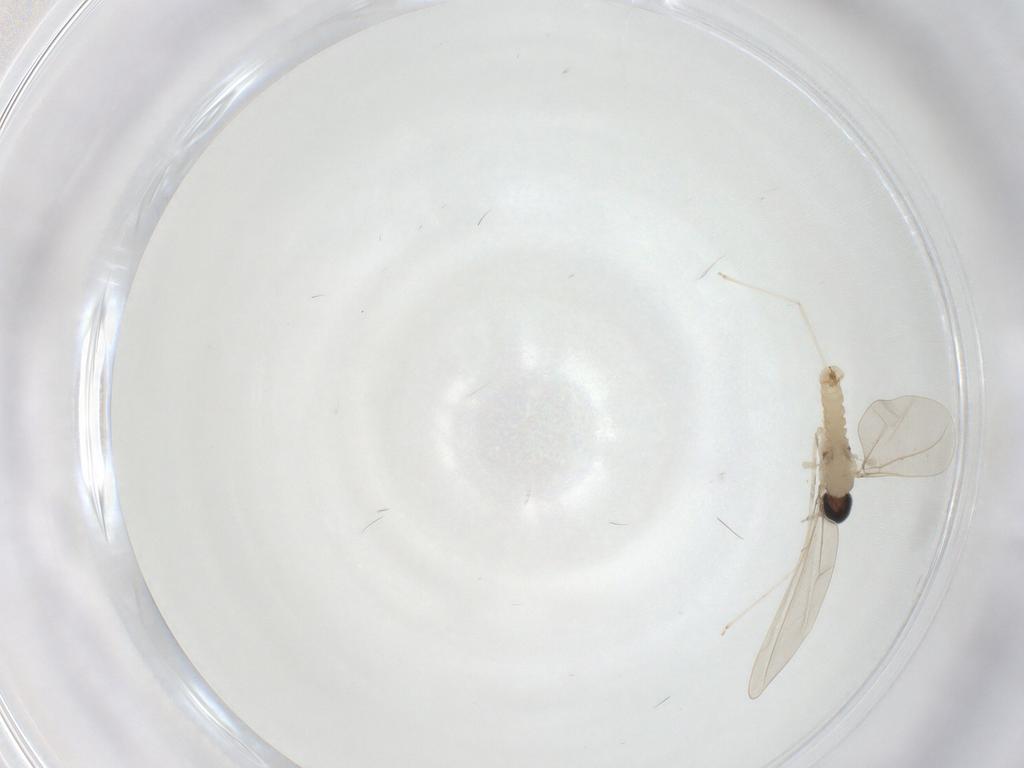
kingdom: Animalia
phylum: Arthropoda
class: Insecta
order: Diptera
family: Cecidomyiidae
